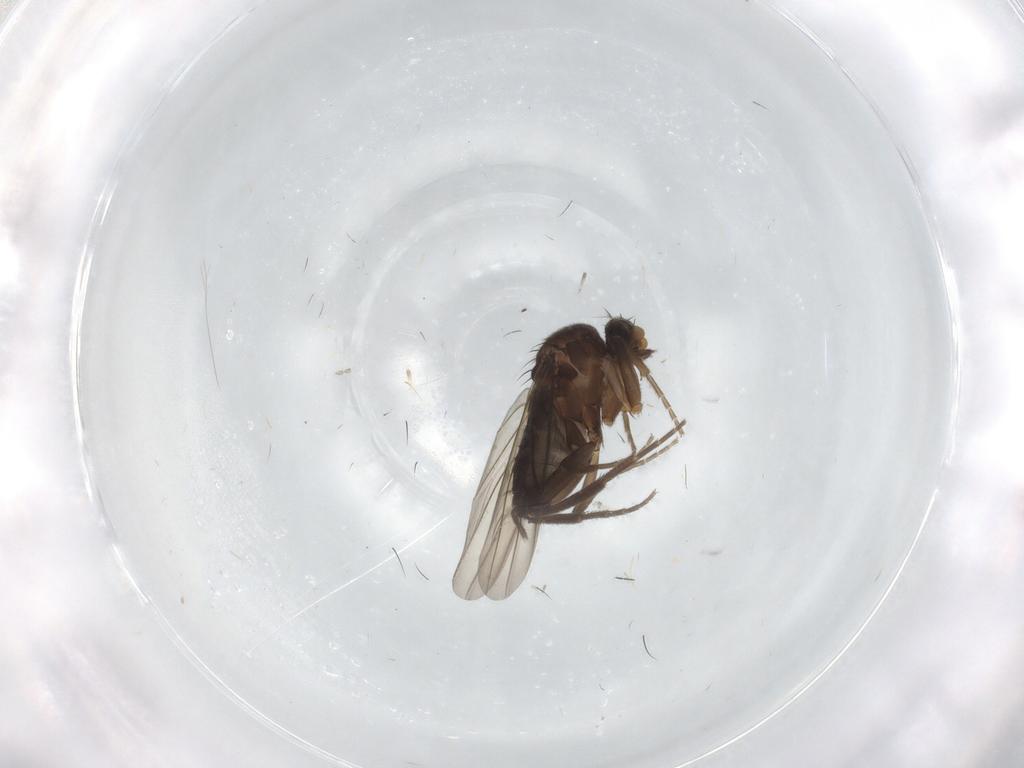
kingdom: Animalia
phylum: Arthropoda
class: Insecta
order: Diptera
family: Cecidomyiidae
